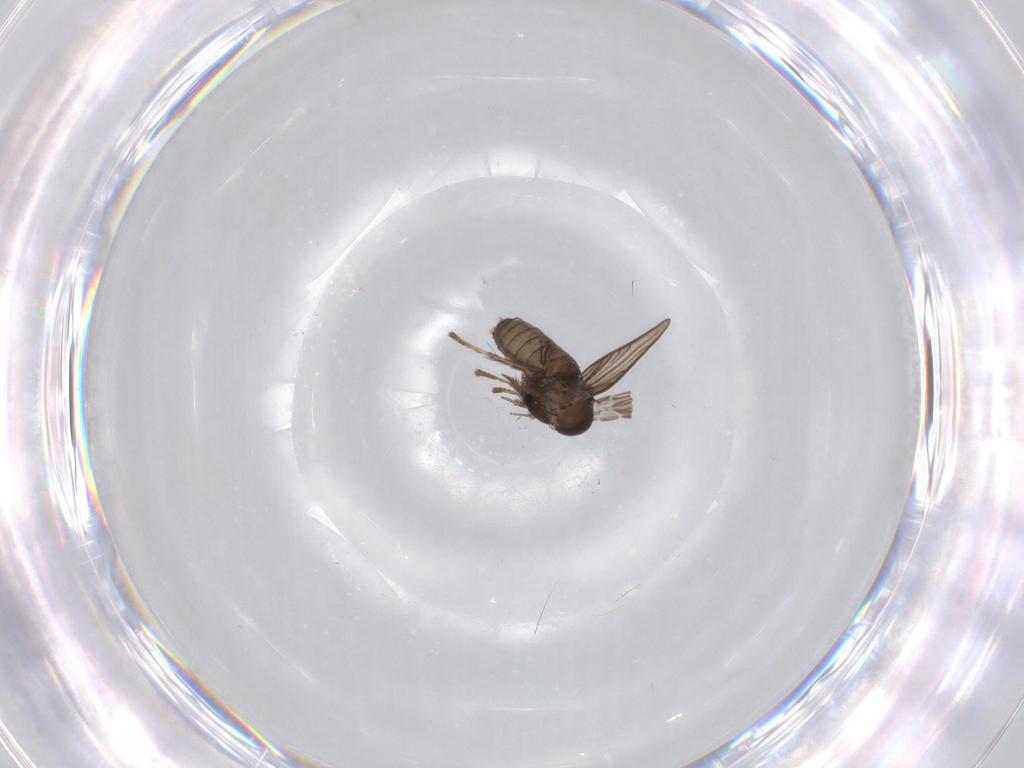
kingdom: Animalia
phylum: Arthropoda
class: Insecta
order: Diptera
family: Psychodidae
